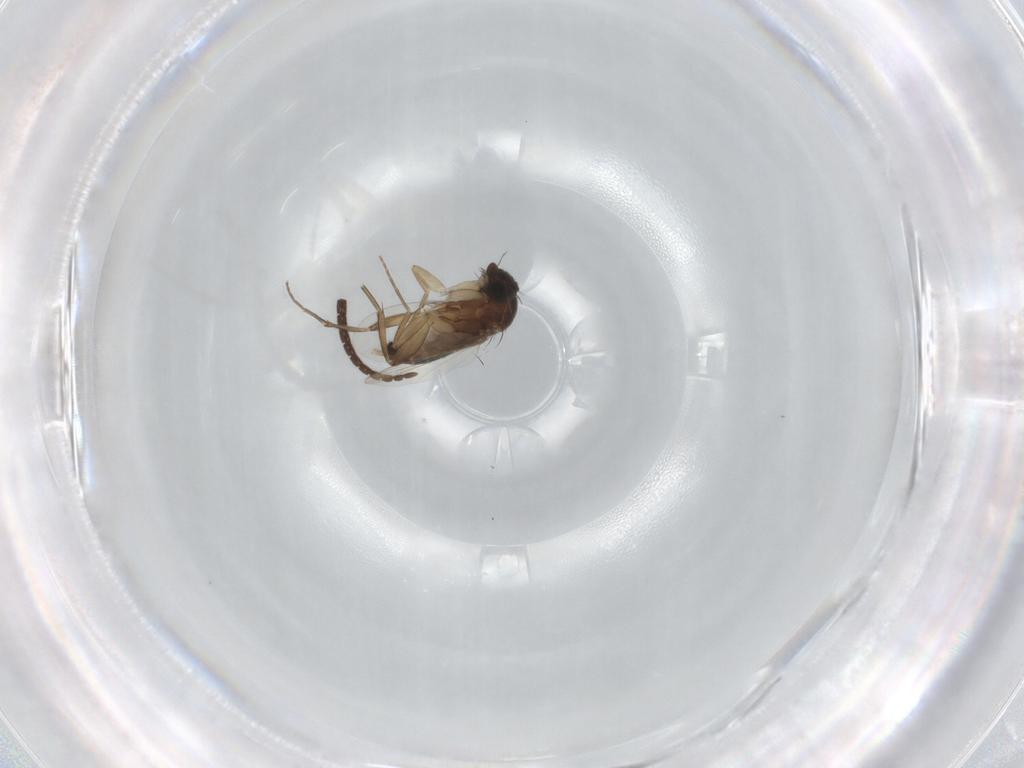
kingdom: Animalia
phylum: Arthropoda
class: Insecta
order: Diptera
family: Phoridae
